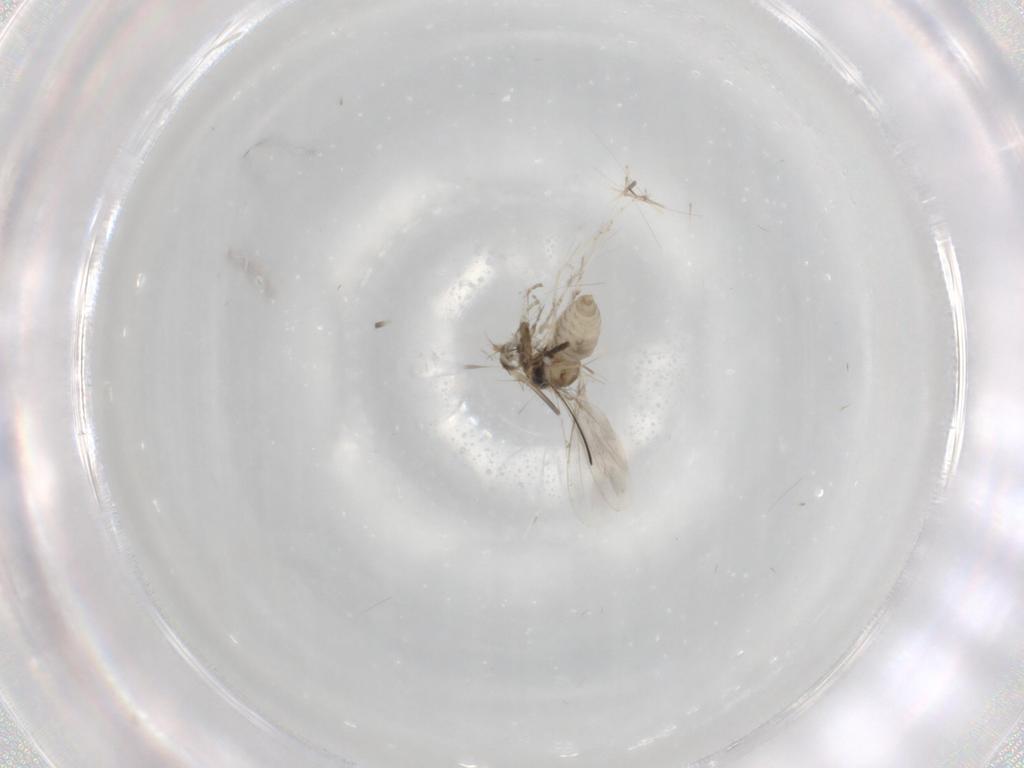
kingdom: Animalia
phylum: Arthropoda
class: Insecta
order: Diptera
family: Cecidomyiidae
